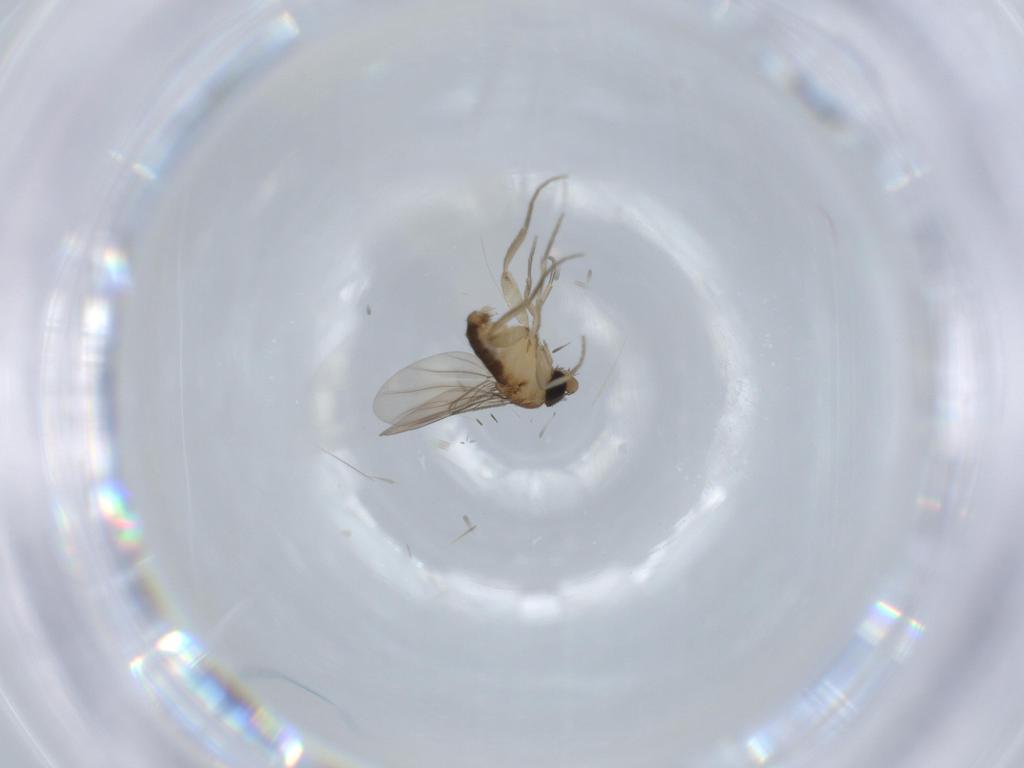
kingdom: Animalia
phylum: Arthropoda
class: Insecta
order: Diptera
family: Phoridae
